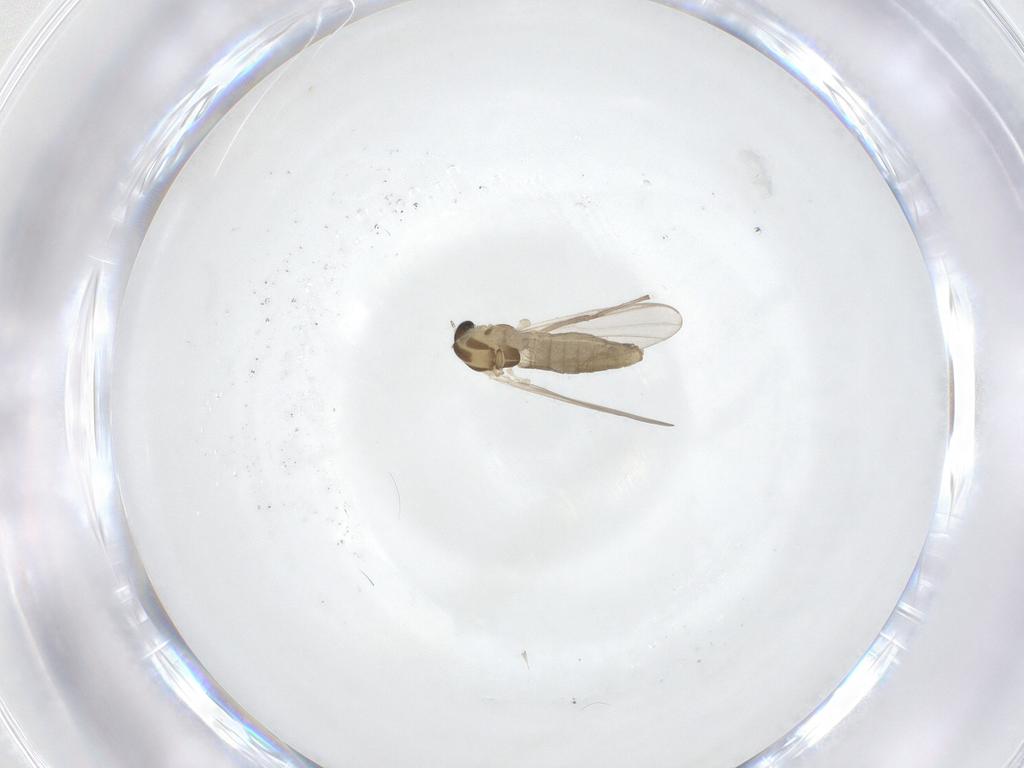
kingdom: Animalia
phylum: Arthropoda
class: Insecta
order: Diptera
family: Chironomidae
